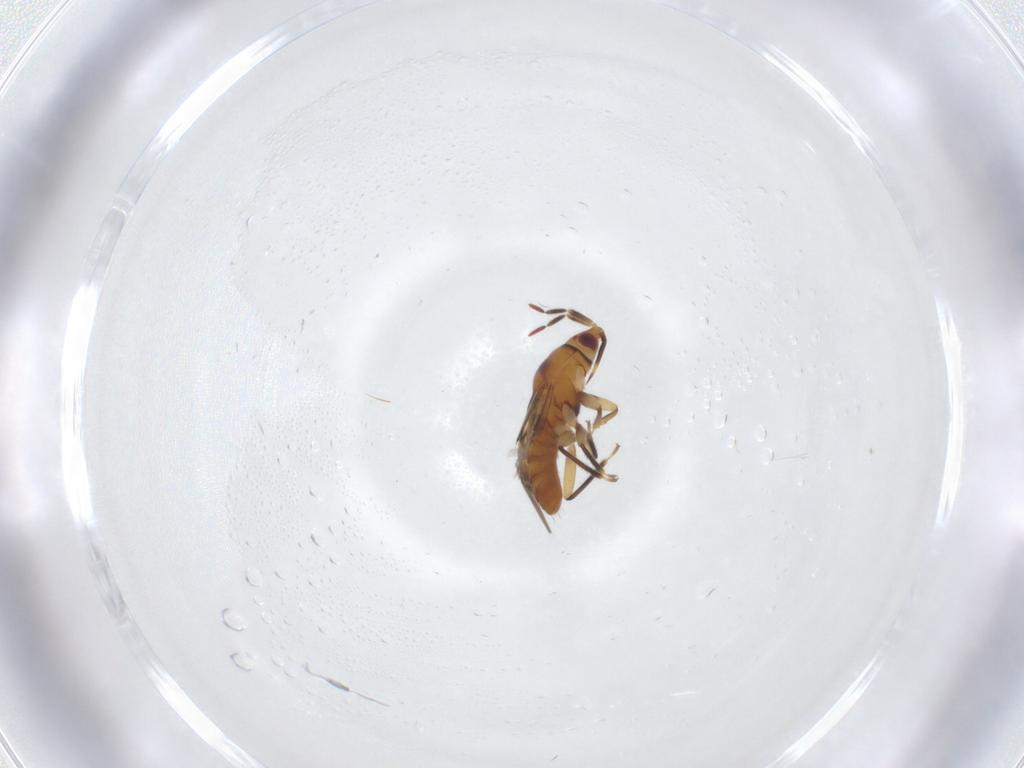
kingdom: Animalia
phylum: Arthropoda
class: Insecta
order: Hemiptera
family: Anthocoridae
